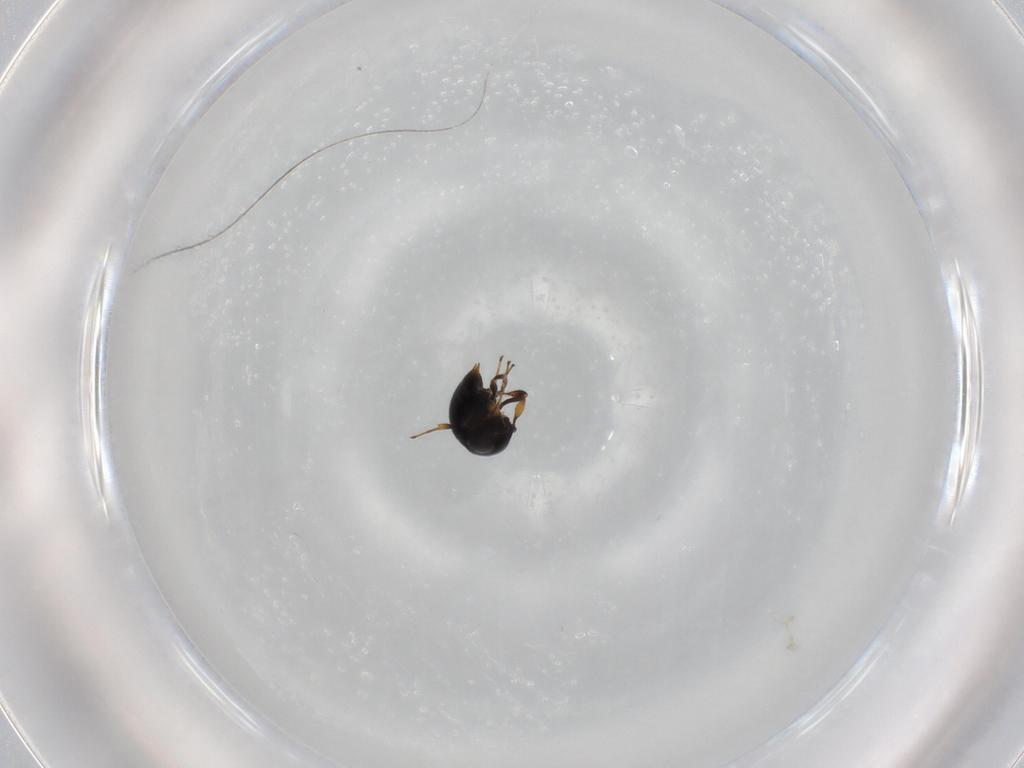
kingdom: Animalia
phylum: Arthropoda
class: Insecta
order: Hymenoptera
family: Scelionidae
